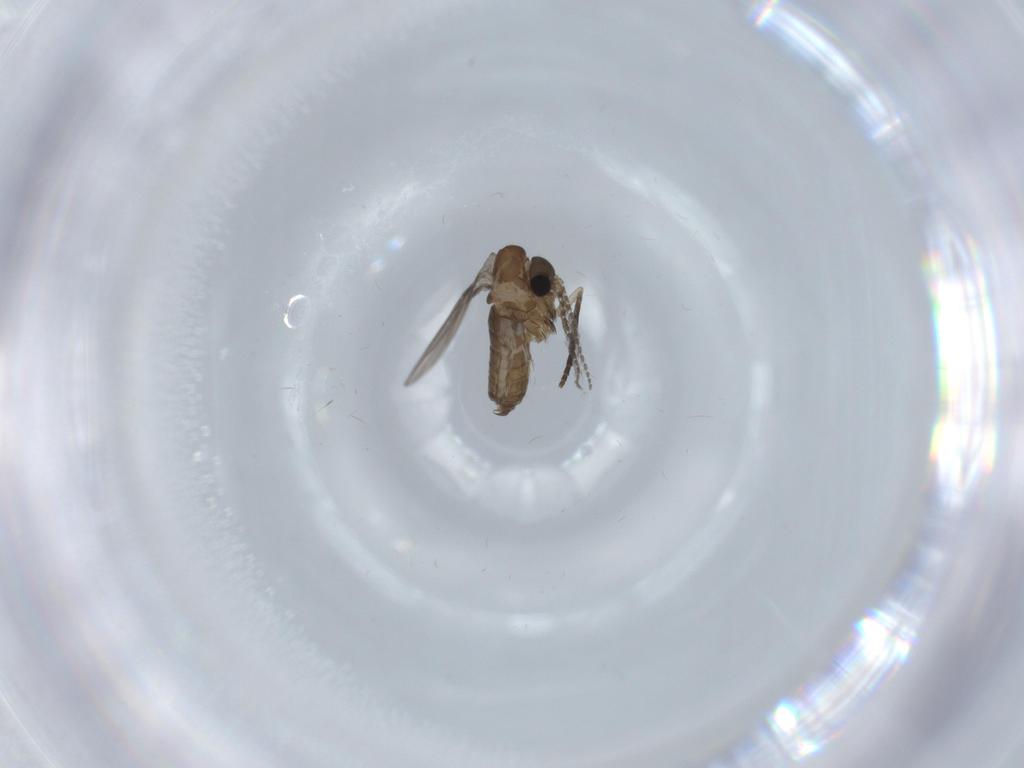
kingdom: Animalia
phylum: Arthropoda
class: Insecta
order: Diptera
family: Psychodidae
